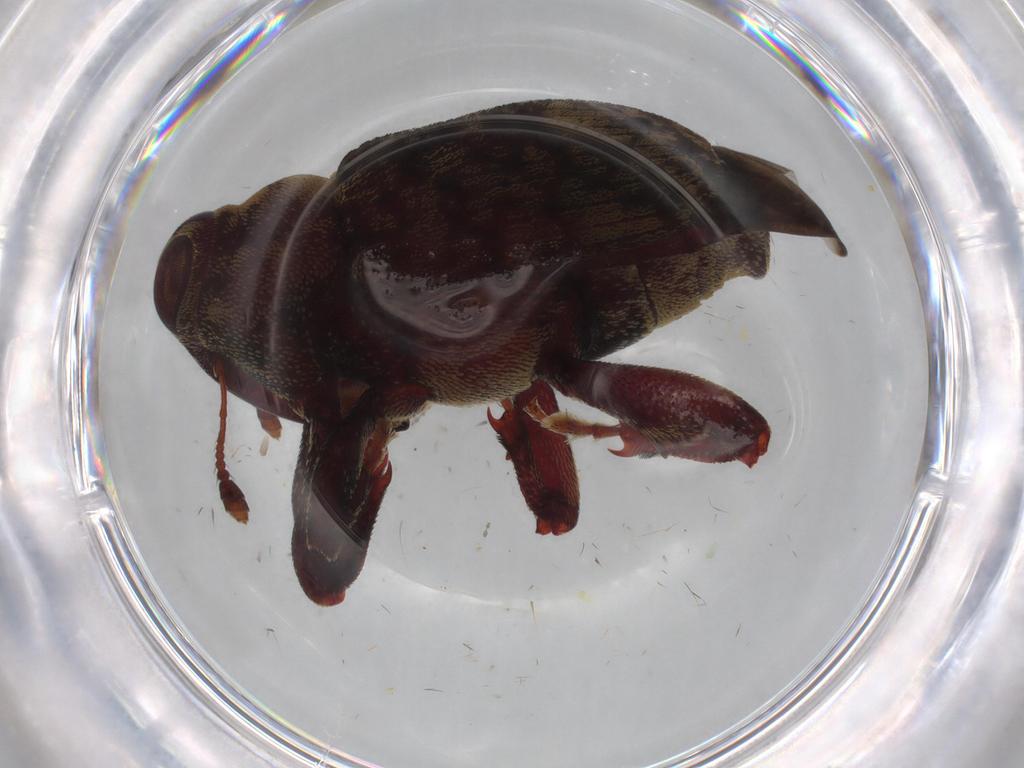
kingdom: Animalia
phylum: Arthropoda
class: Insecta
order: Coleoptera
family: Curculionidae
